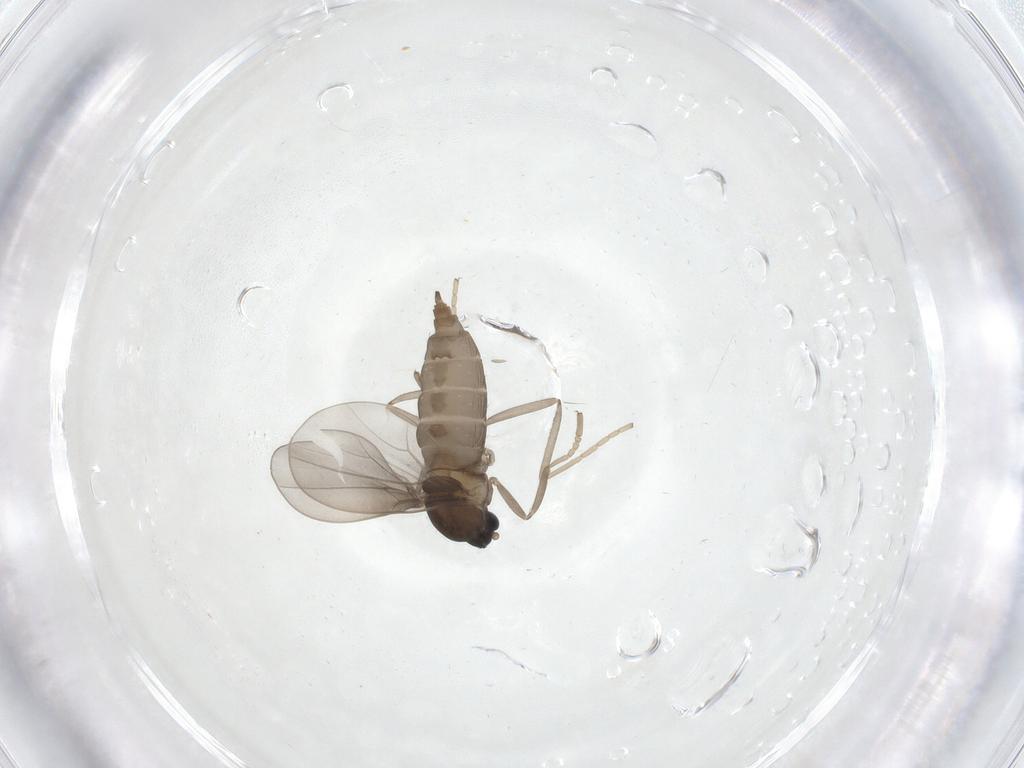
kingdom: Animalia
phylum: Arthropoda
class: Insecta
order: Diptera
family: Cecidomyiidae
